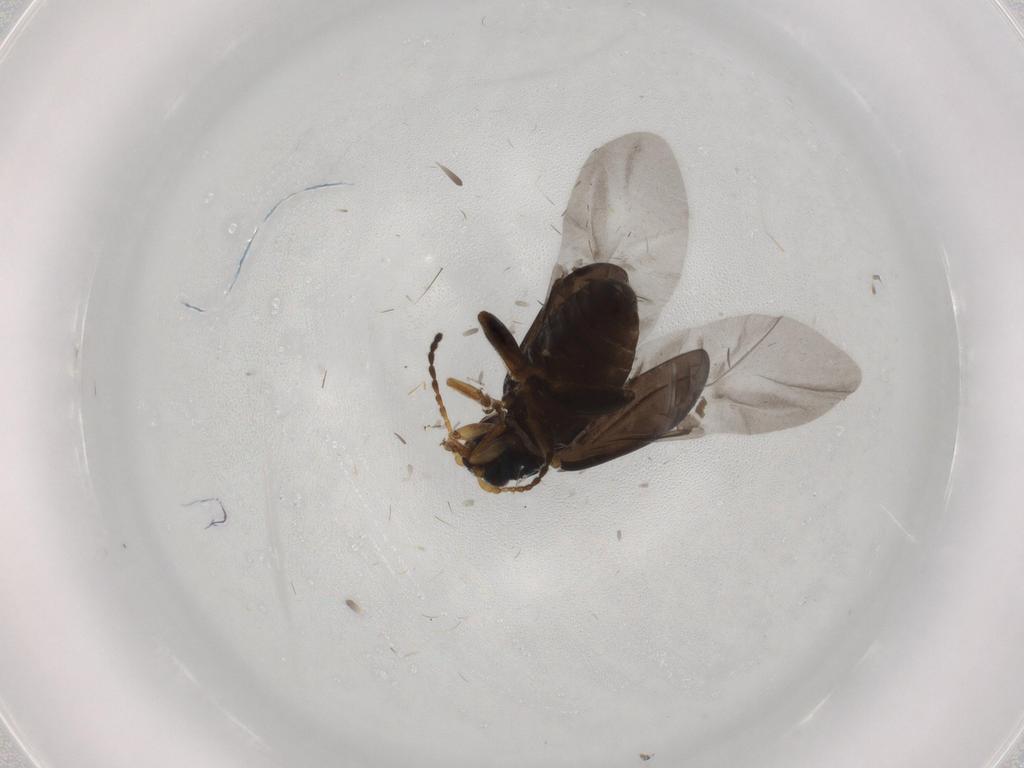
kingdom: Animalia
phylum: Arthropoda
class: Insecta
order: Coleoptera
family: Chrysomelidae
